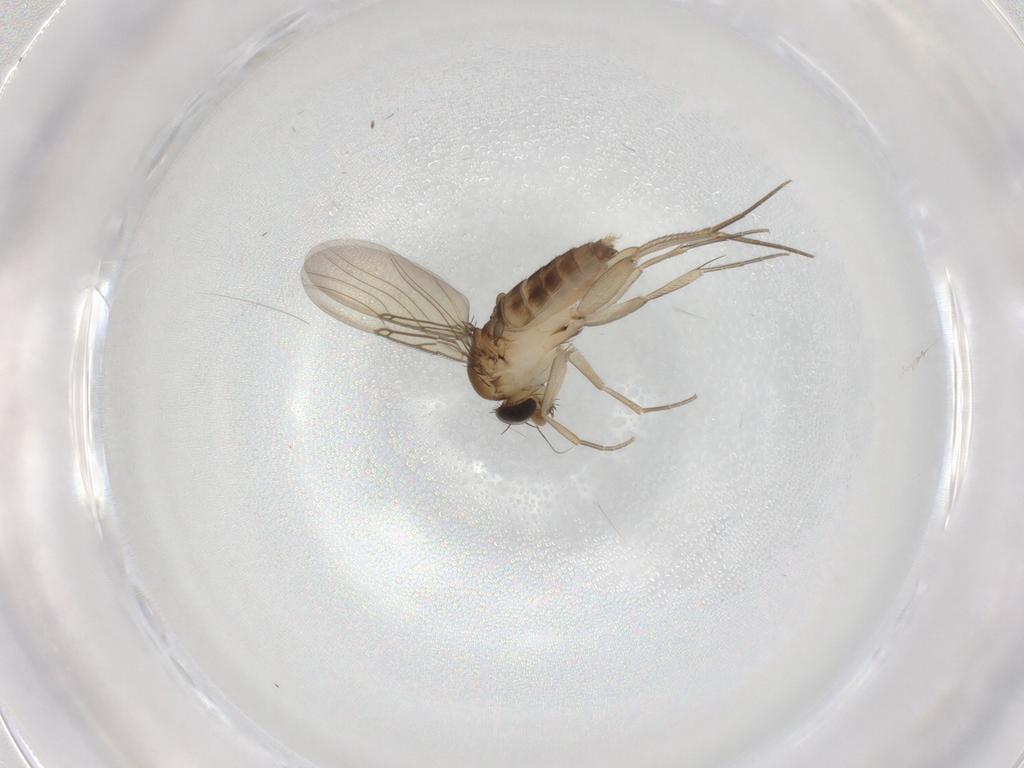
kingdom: Animalia
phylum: Arthropoda
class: Insecta
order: Diptera
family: Phoridae
